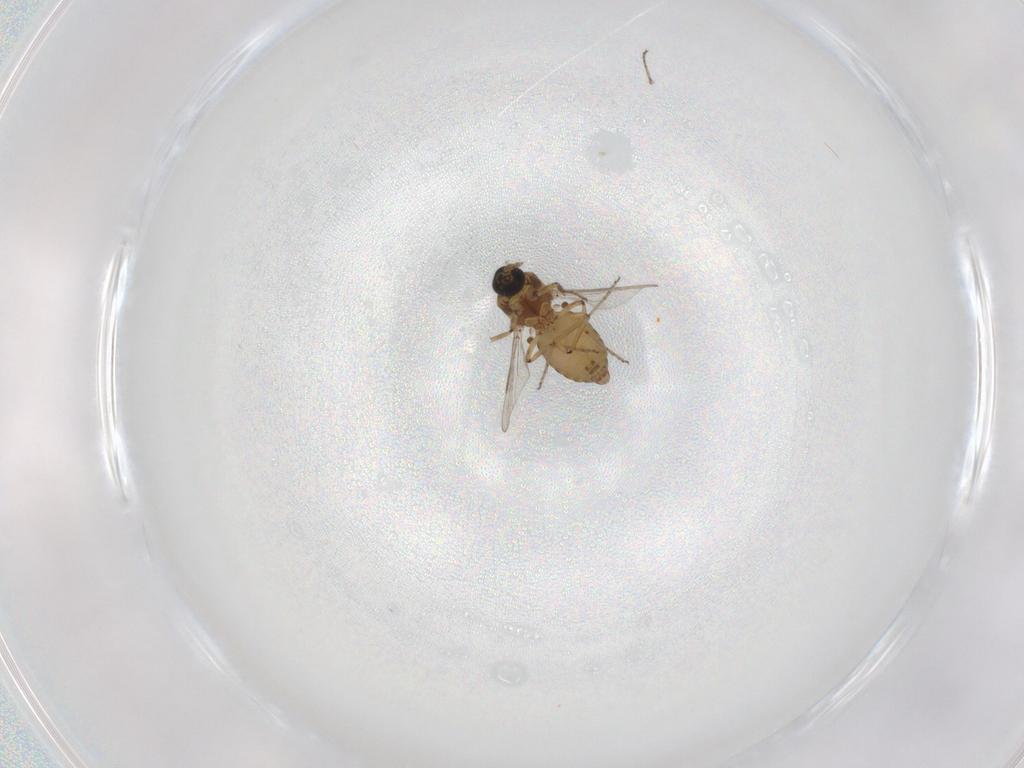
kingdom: Animalia
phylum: Arthropoda
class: Insecta
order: Diptera
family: Ceratopogonidae
